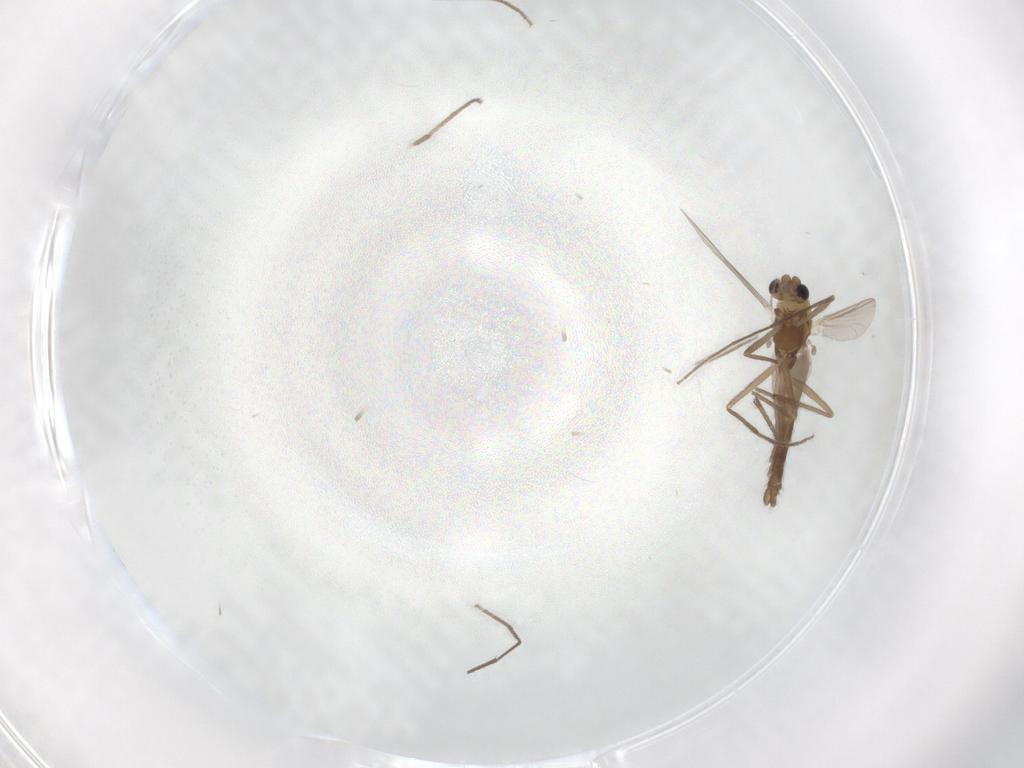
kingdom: Animalia
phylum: Arthropoda
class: Insecta
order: Diptera
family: Chironomidae
